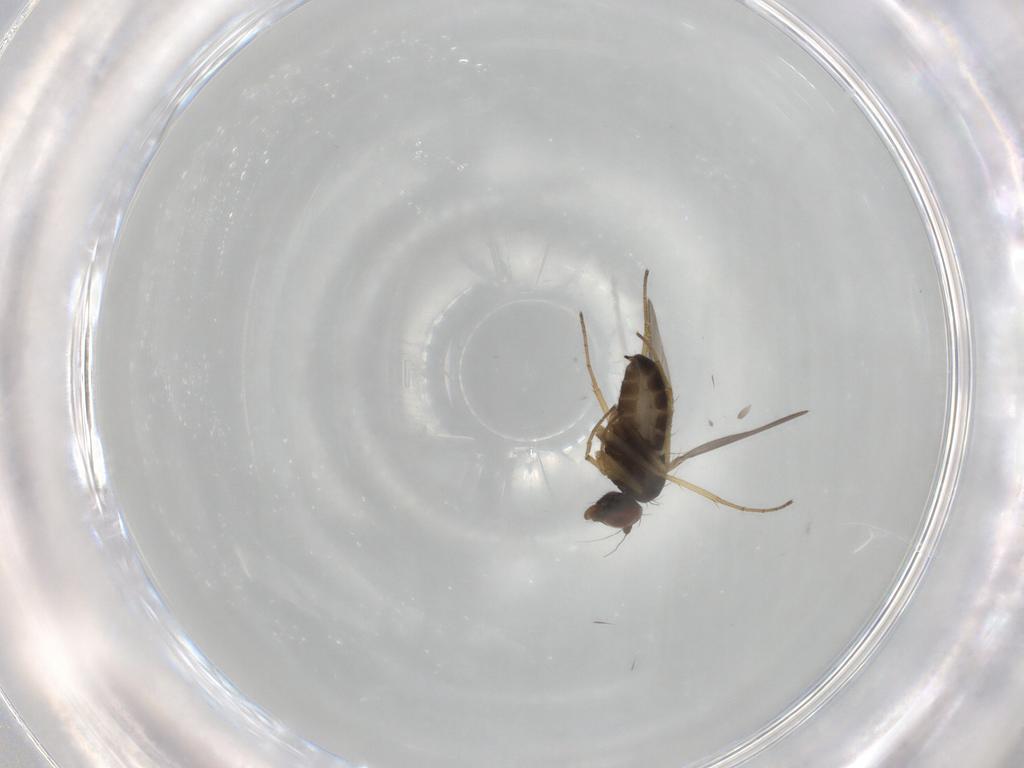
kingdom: Animalia
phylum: Arthropoda
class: Insecta
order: Diptera
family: Dolichopodidae
